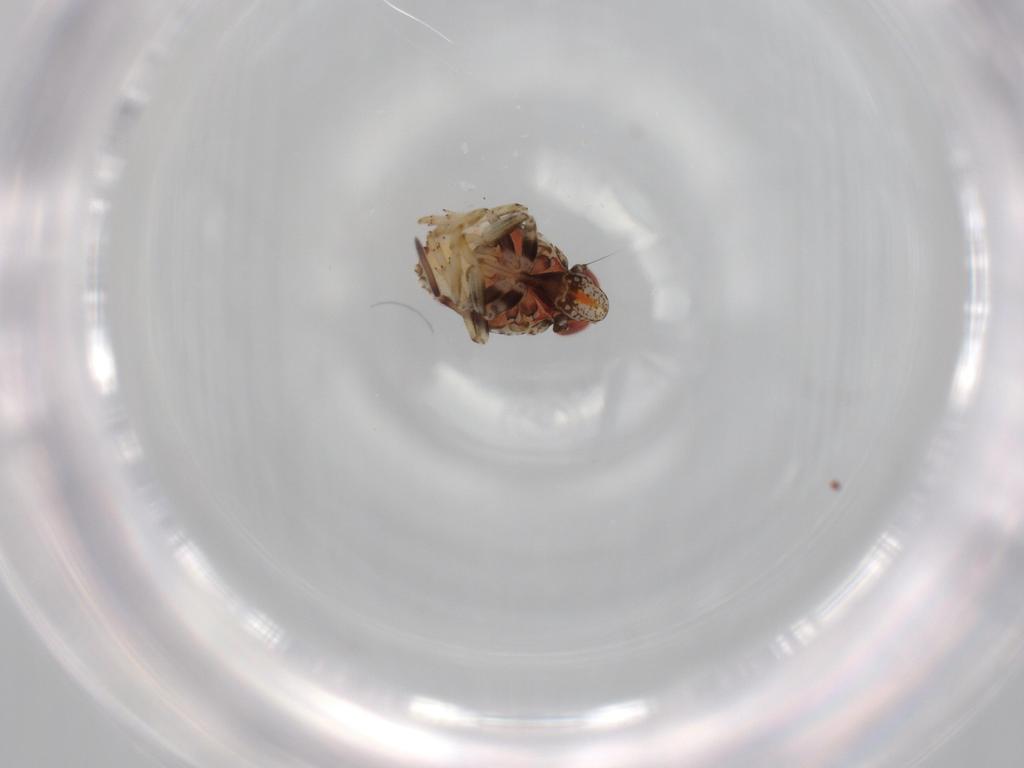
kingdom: Animalia
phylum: Arthropoda
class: Insecta
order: Hemiptera
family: Issidae
